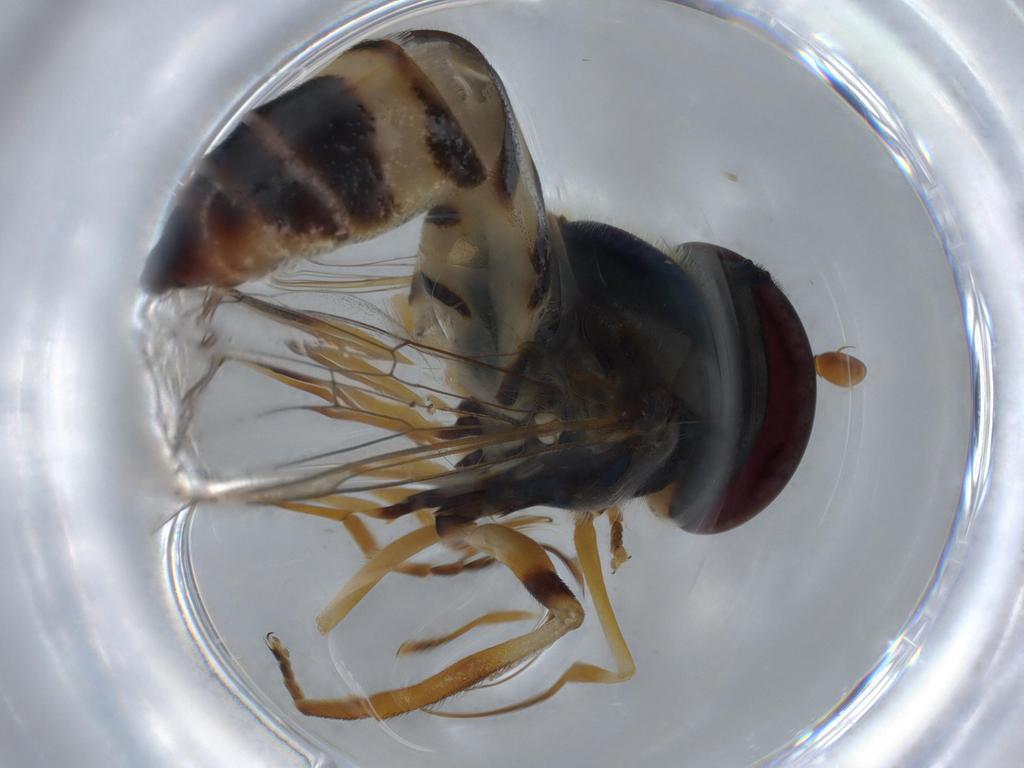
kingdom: Animalia
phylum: Arthropoda
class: Insecta
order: Diptera
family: Syrphidae
